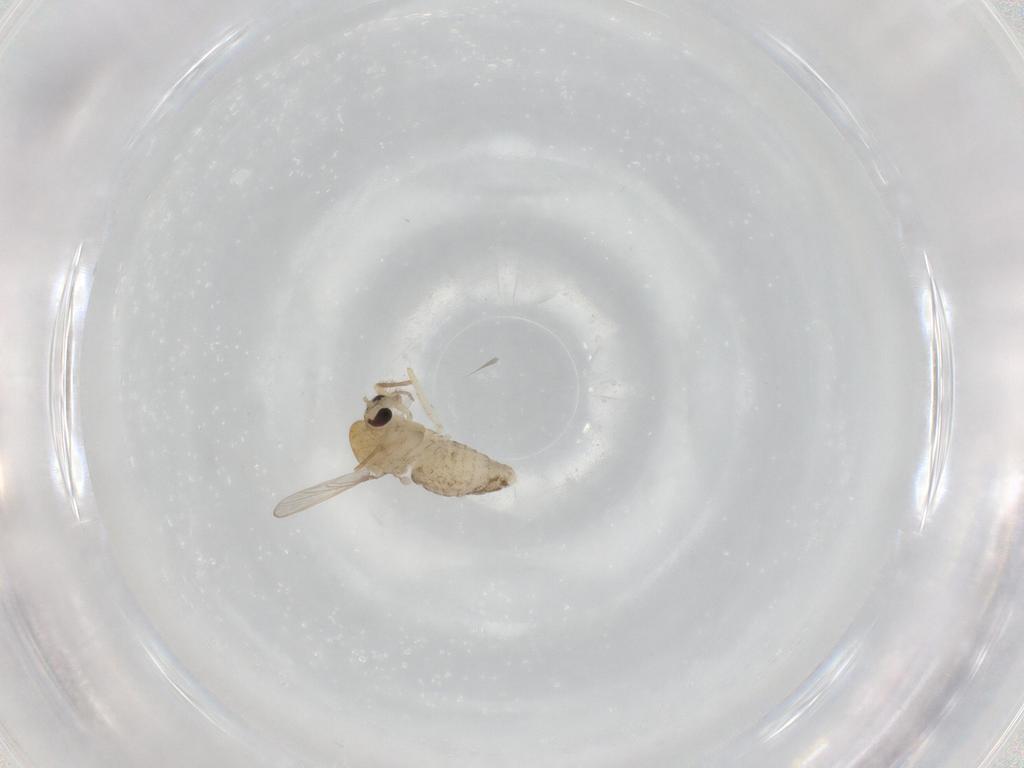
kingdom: Animalia
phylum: Arthropoda
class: Insecta
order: Diptera
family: Chironomidae
